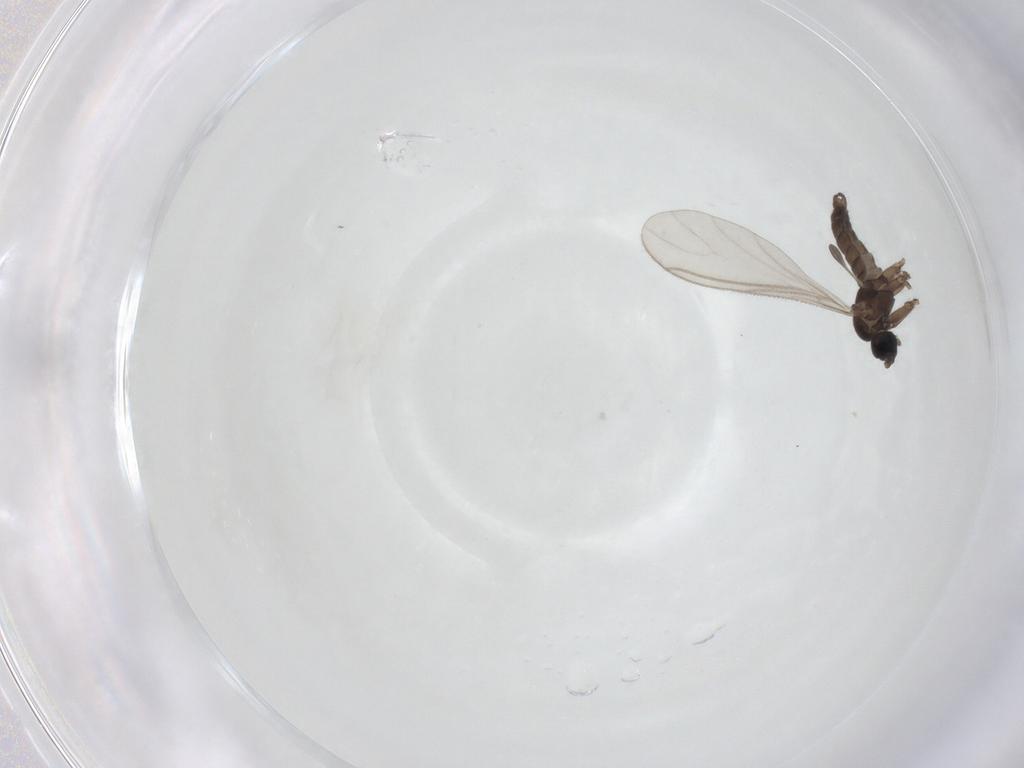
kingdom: Animalia
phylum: Arthropoda
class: Insecta
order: Diptera
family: Sciaridae
